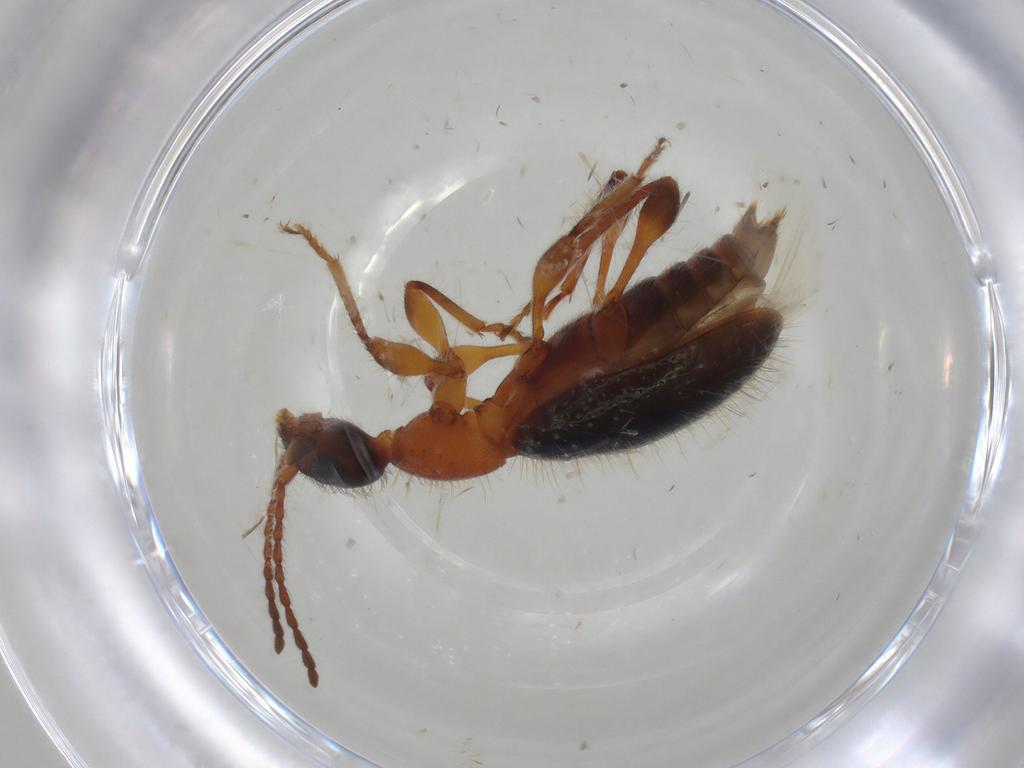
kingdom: Animalia
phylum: Arthropoda
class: Insecta
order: Coleoptera
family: Anthicidae
